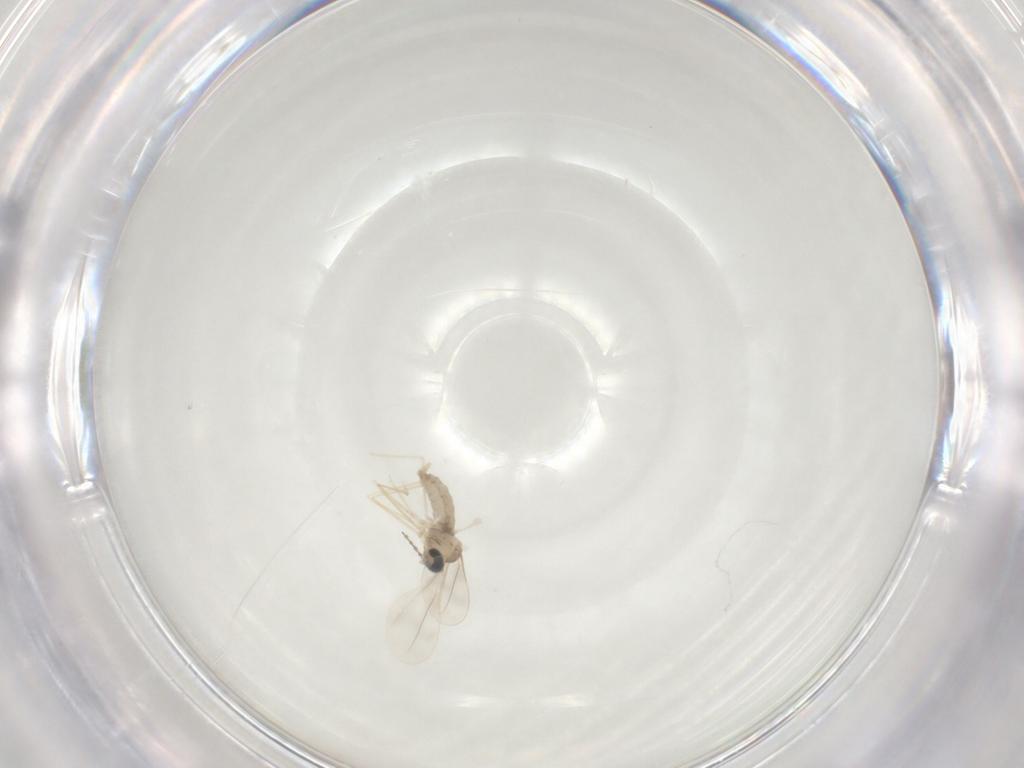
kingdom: Animalia
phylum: Arthropoda
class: Insecta
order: Diptera
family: Cecidomyiidae
